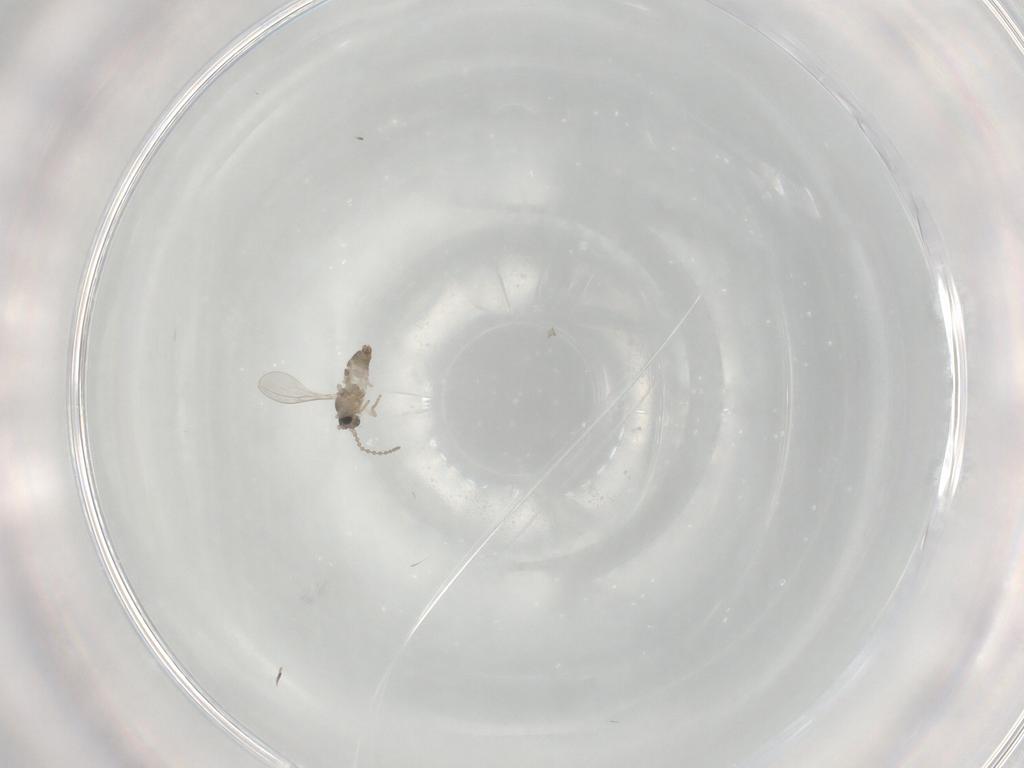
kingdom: Animalia
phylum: Arthropoda
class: Insecta
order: Diptera
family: Cecidomyiidae
